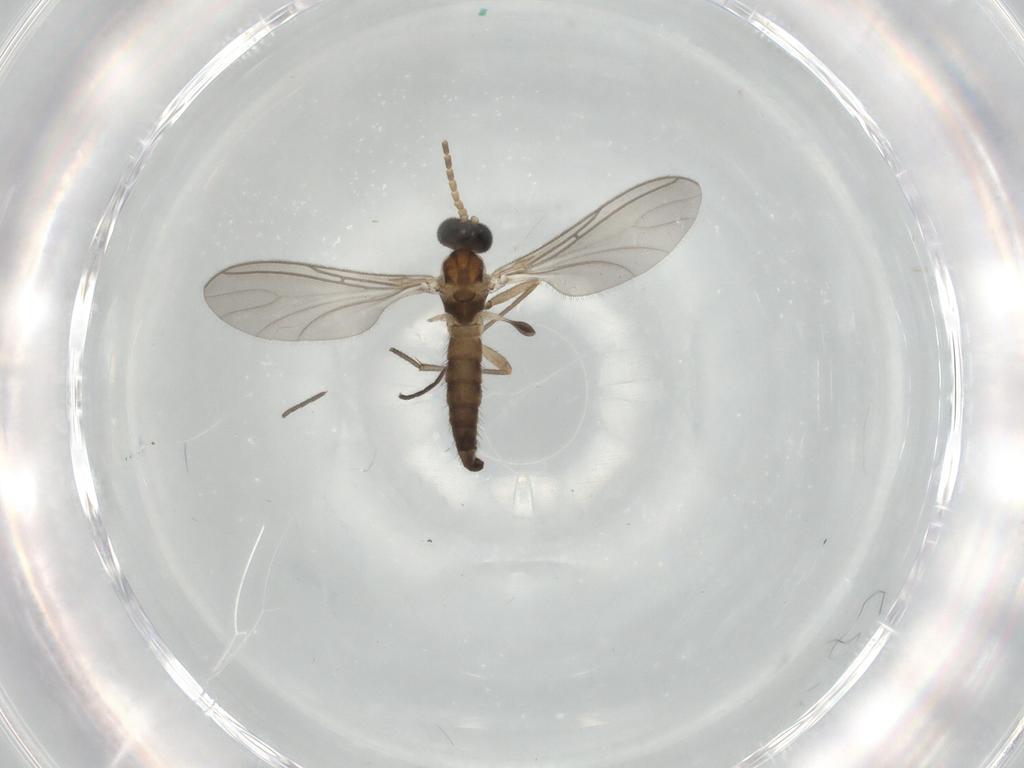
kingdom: Animalia
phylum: Arthropoda
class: Insecta
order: Diptera
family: Sciaridae
